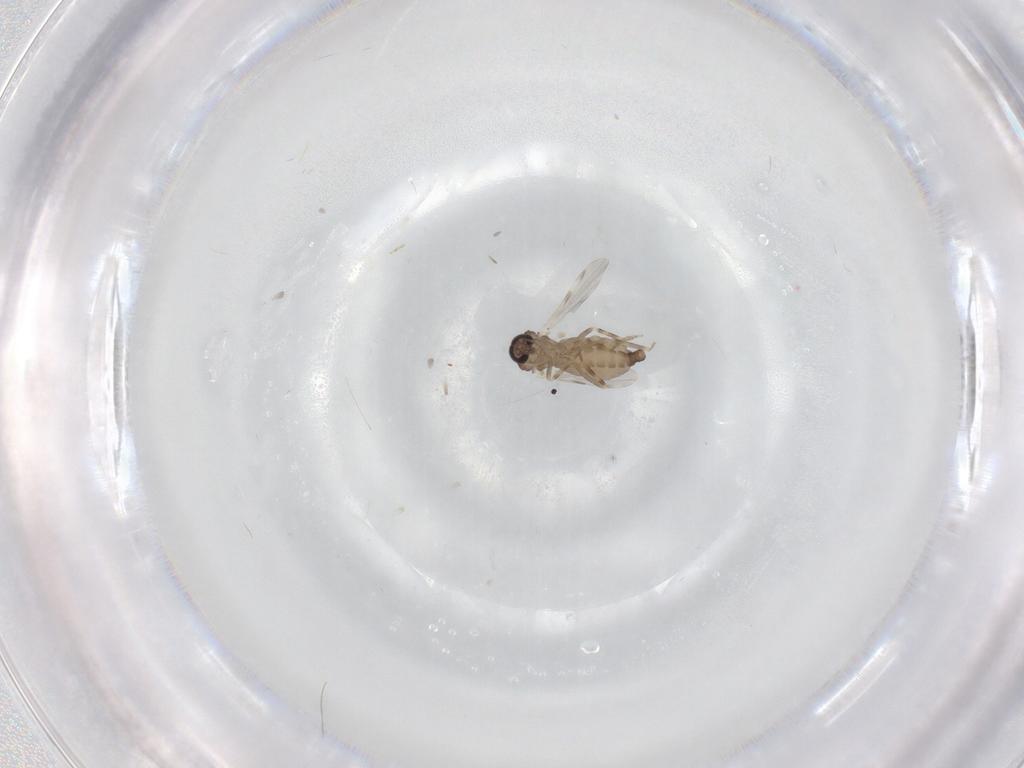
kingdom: Animalia
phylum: Arthropoda
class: Insecta
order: Diptera
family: Ceratopogonidae
